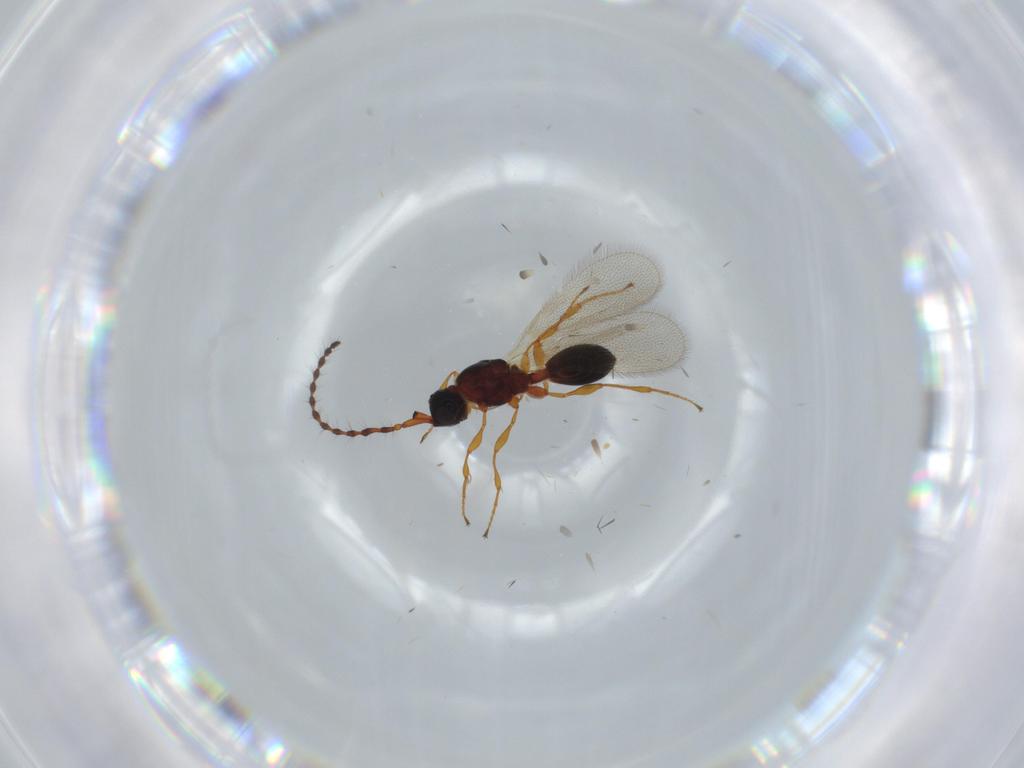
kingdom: Animalia
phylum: Arthropoda
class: Insecta
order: Hymenoptera
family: Diapriidae
